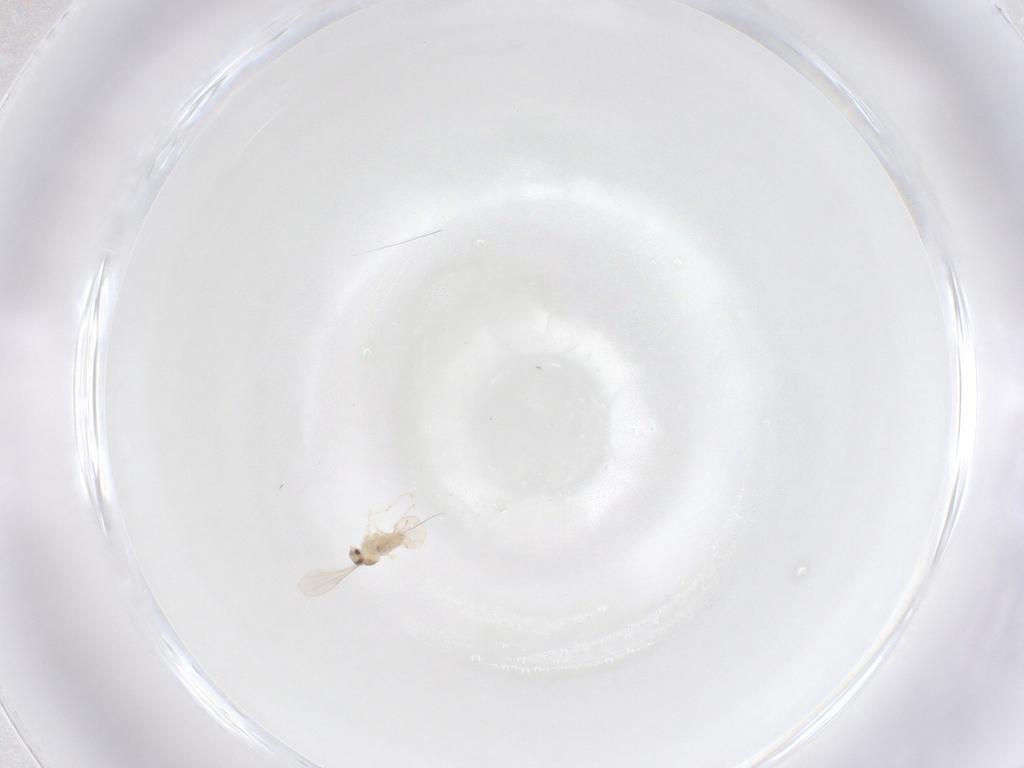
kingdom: Animalia
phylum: Arthropoda
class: Insecta
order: Diptera
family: Cecidomyiidae
